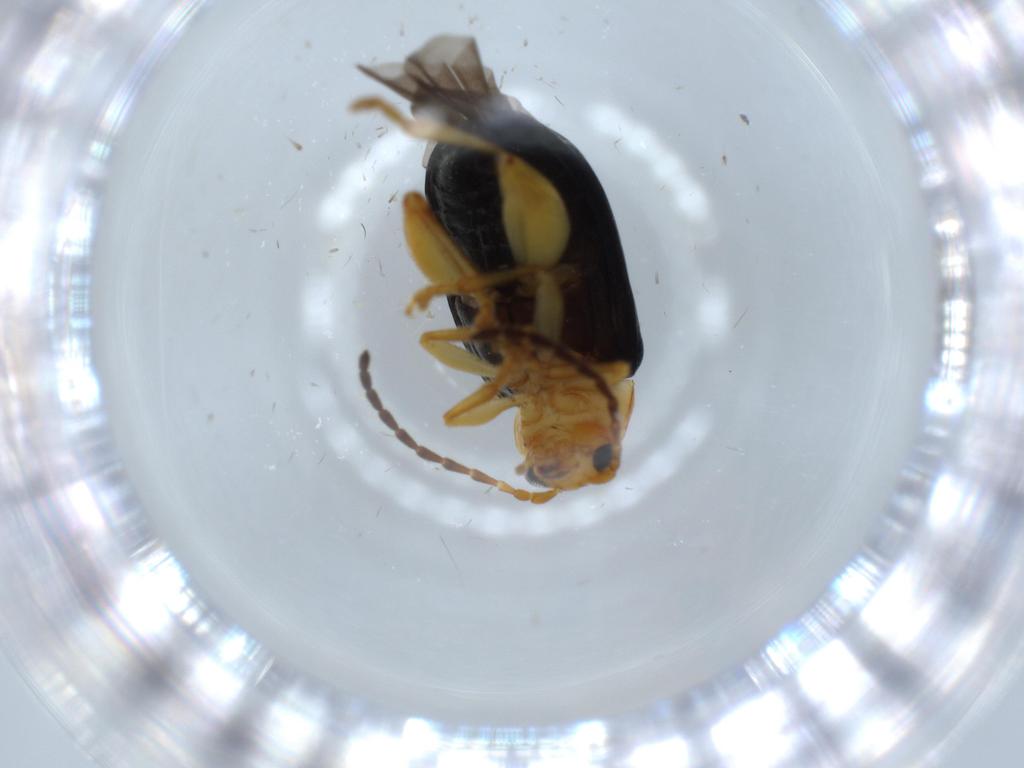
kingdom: Animalia
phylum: Arthropoda
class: Insecta
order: Coleoptera
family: Chrysomelidae
